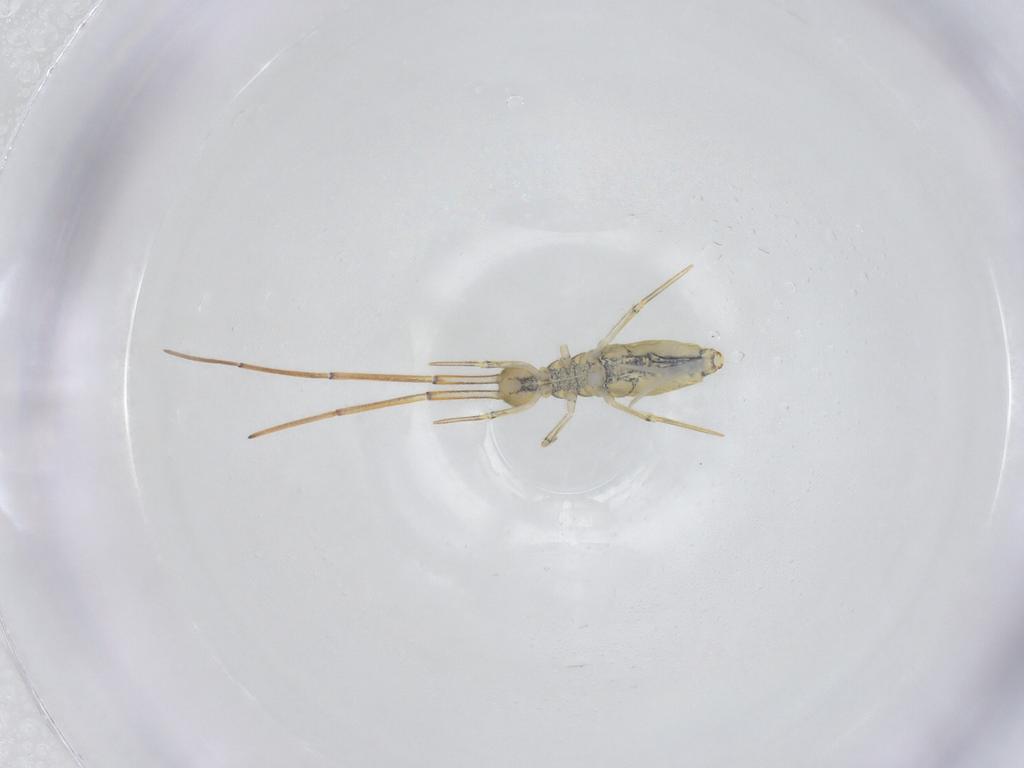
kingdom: Animalia
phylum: Arthropoda
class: Collembola
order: Entomobryomorpha
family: Paronellidae
